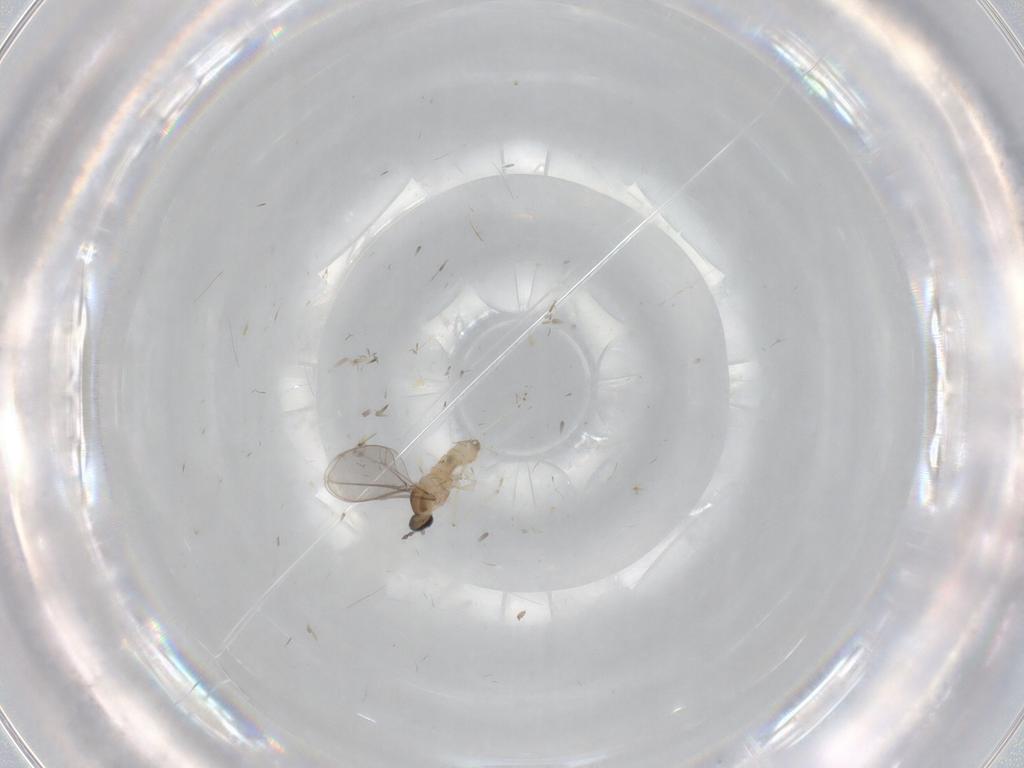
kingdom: Animalia
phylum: Arthropoda
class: Insecta
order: Diptera
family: Cecidomyiidae
